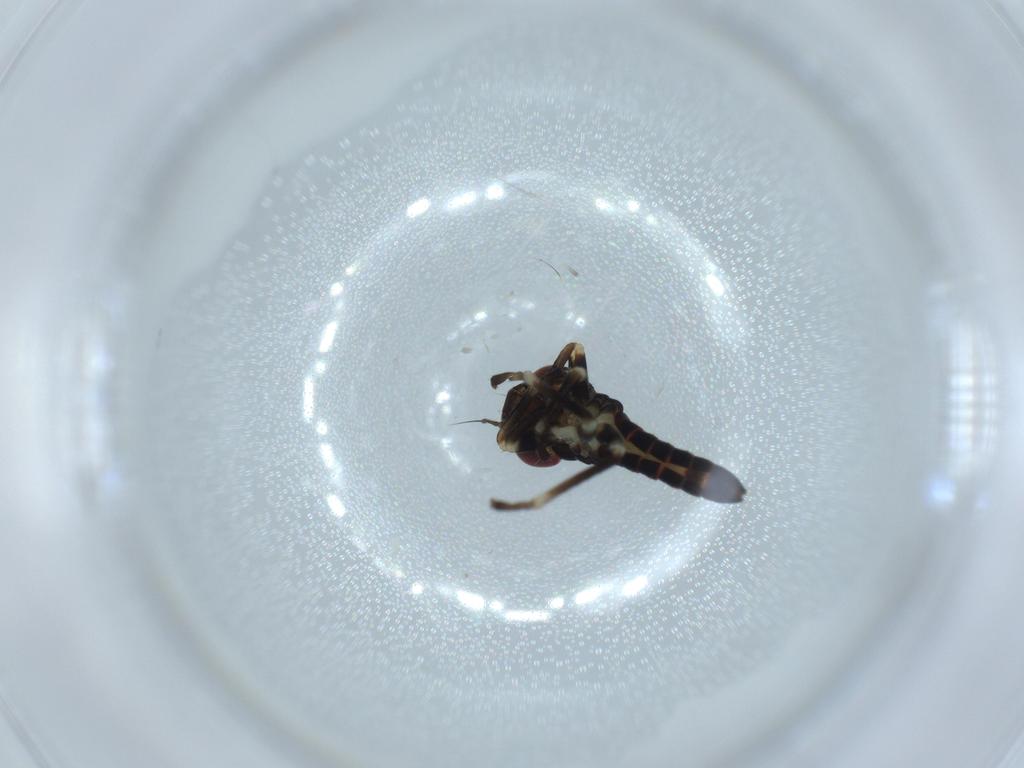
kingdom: Animalia
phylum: Arthropoda
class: Insecta
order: Hemiptera
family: Cicadellidae
